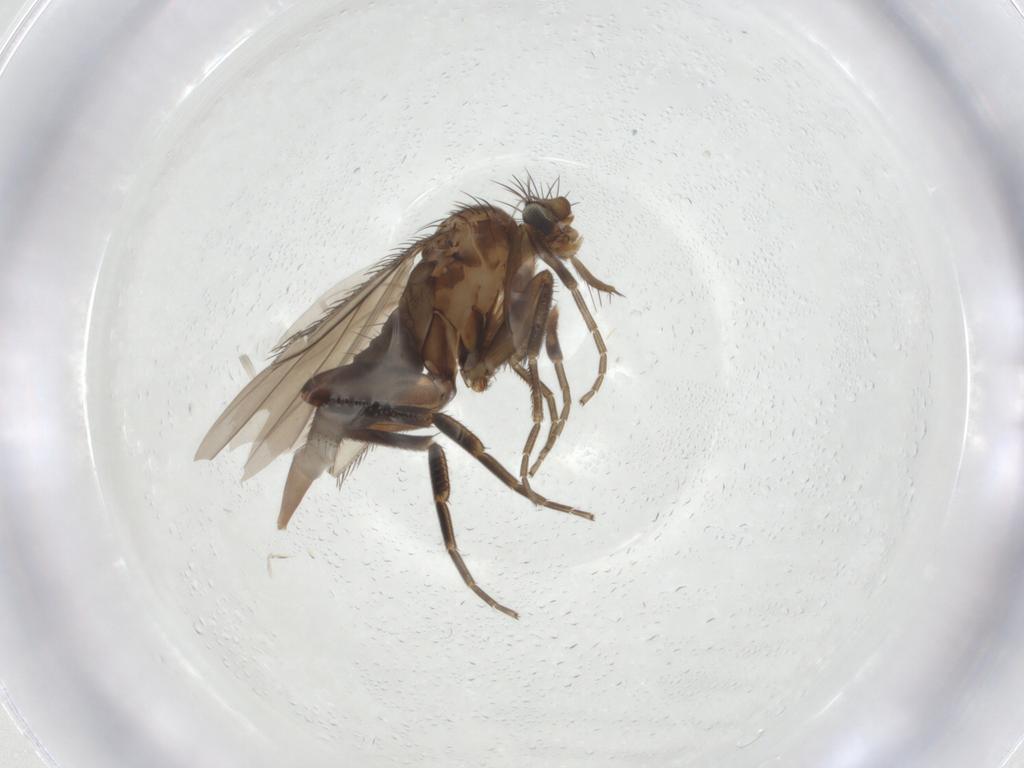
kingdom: Animalia
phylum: Arthropoda
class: Insecta
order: Diptera
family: Phoridae
